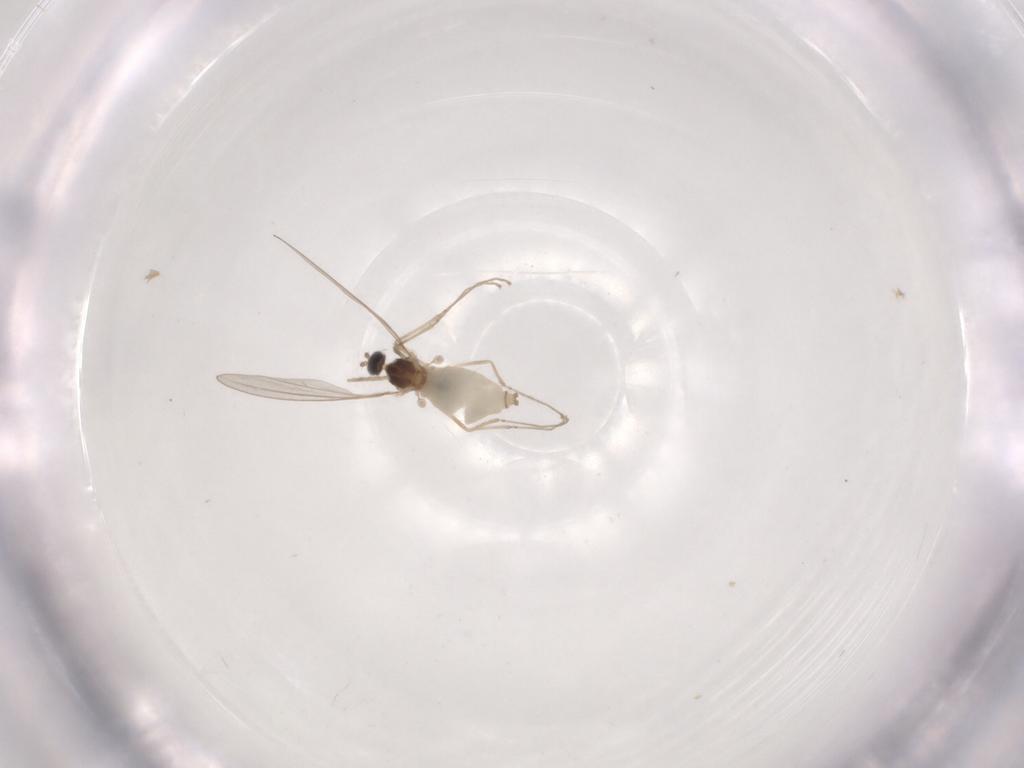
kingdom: Animalia
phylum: Arthropoda
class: Insecta
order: Diptera
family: Cecidomyiidae
